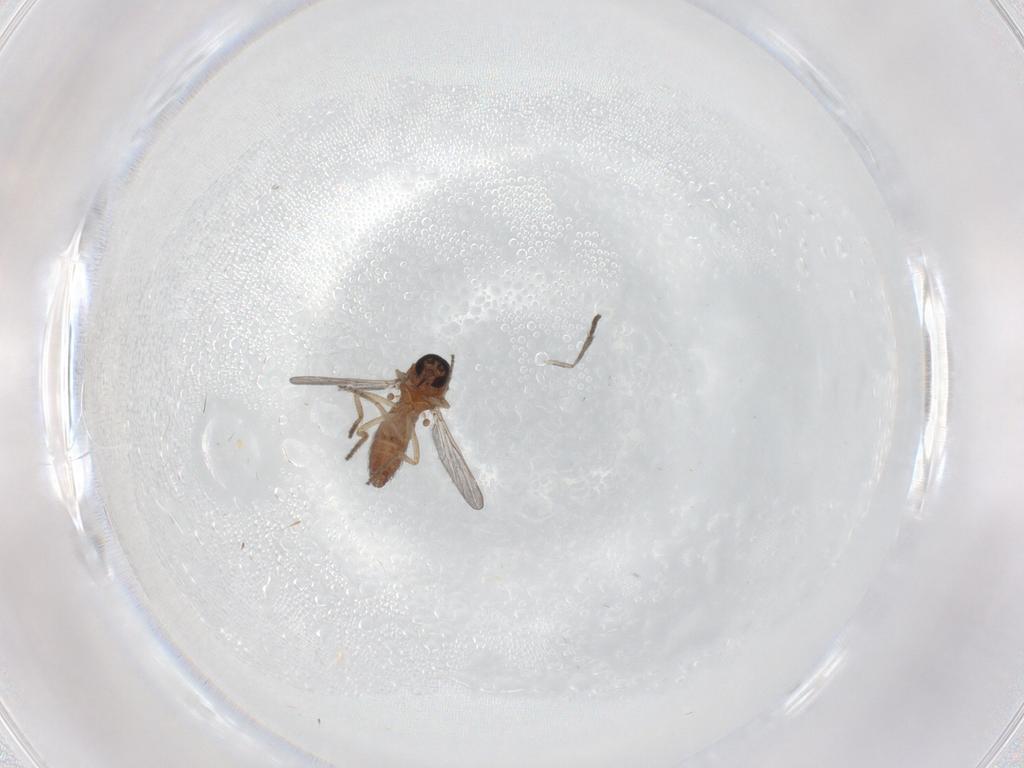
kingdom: Animalia
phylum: Arthropoda
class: Insecta
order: Diptera
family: Ceratopogonidae
